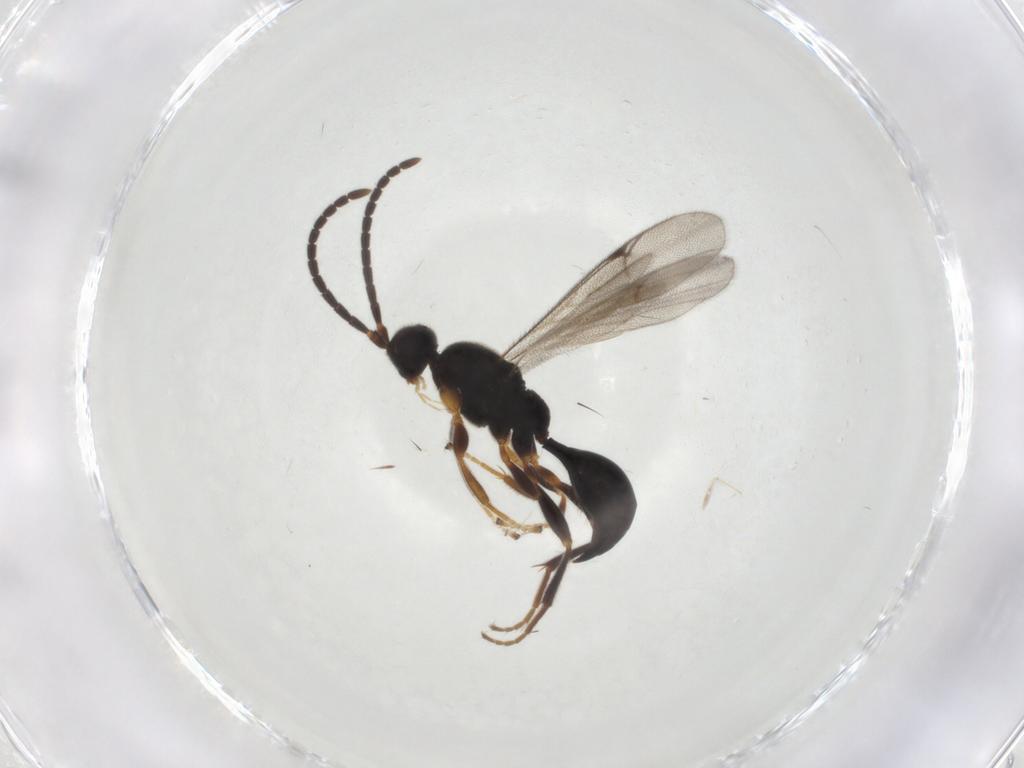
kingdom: Animalia
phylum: Arthropoda
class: Insecta
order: Hymenoptera
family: Proctotrupidae
